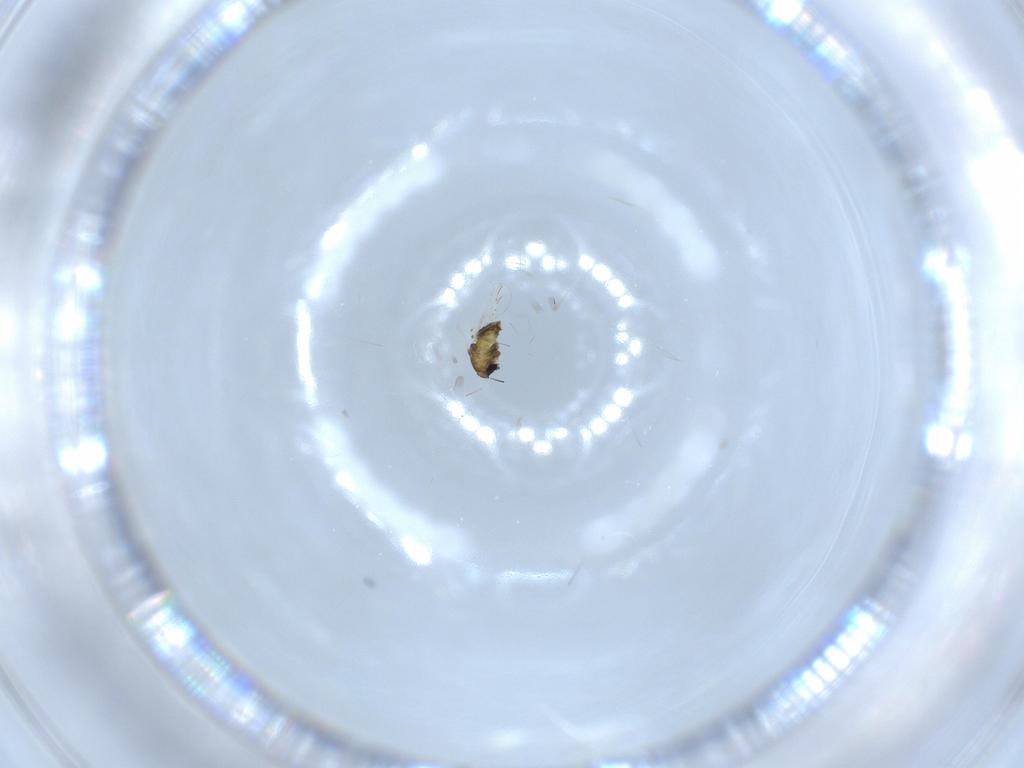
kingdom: Animalia
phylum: Arthropoda
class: Insecta
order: Diptera
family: Chironomidae
